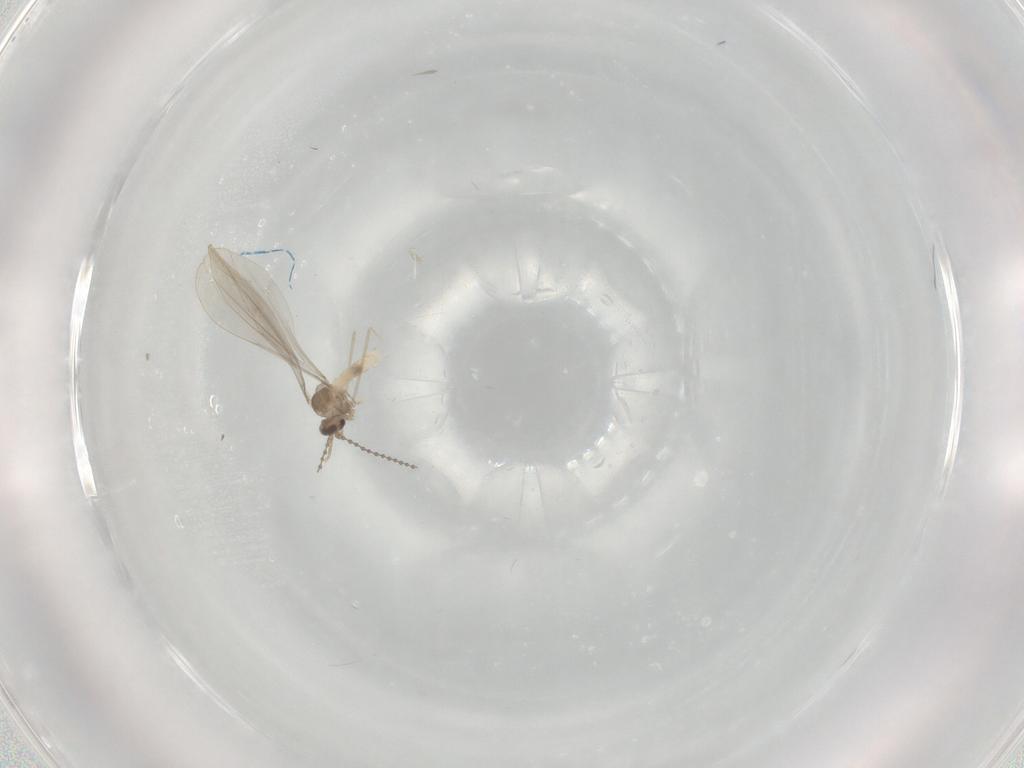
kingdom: Animalia
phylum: Arthropoda
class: Insecta
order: Diptera
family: Cecidomyiidae
